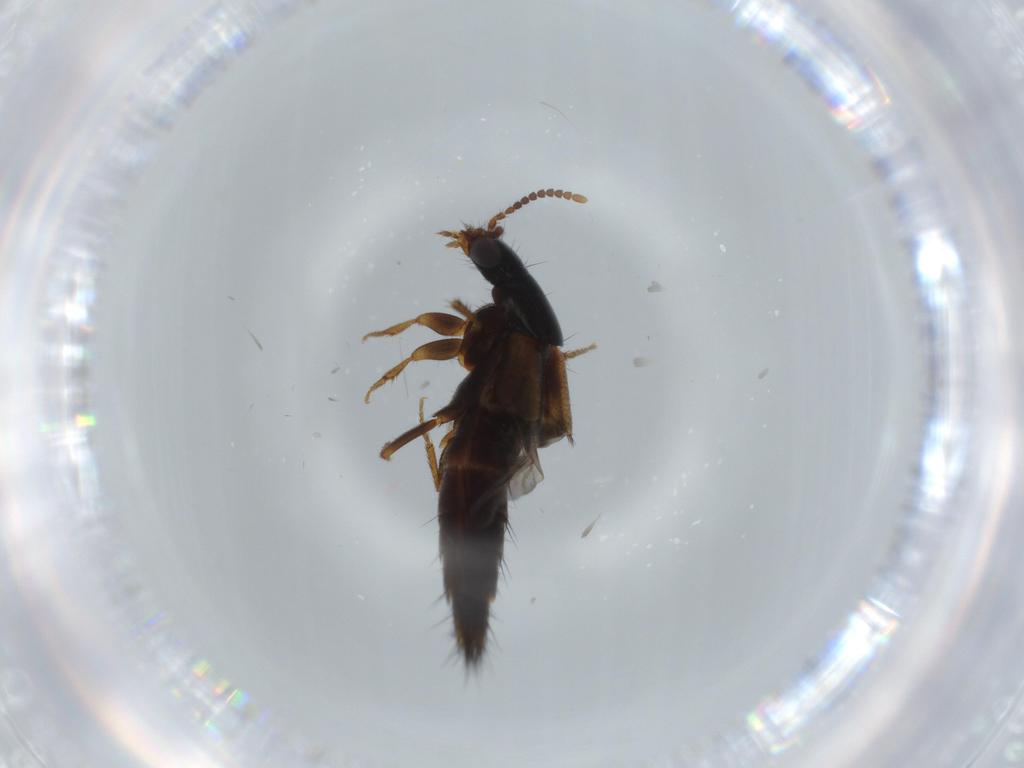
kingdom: Animalia
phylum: Arthropoda
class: Insecta
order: Coleoptera
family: Staphylinidae
